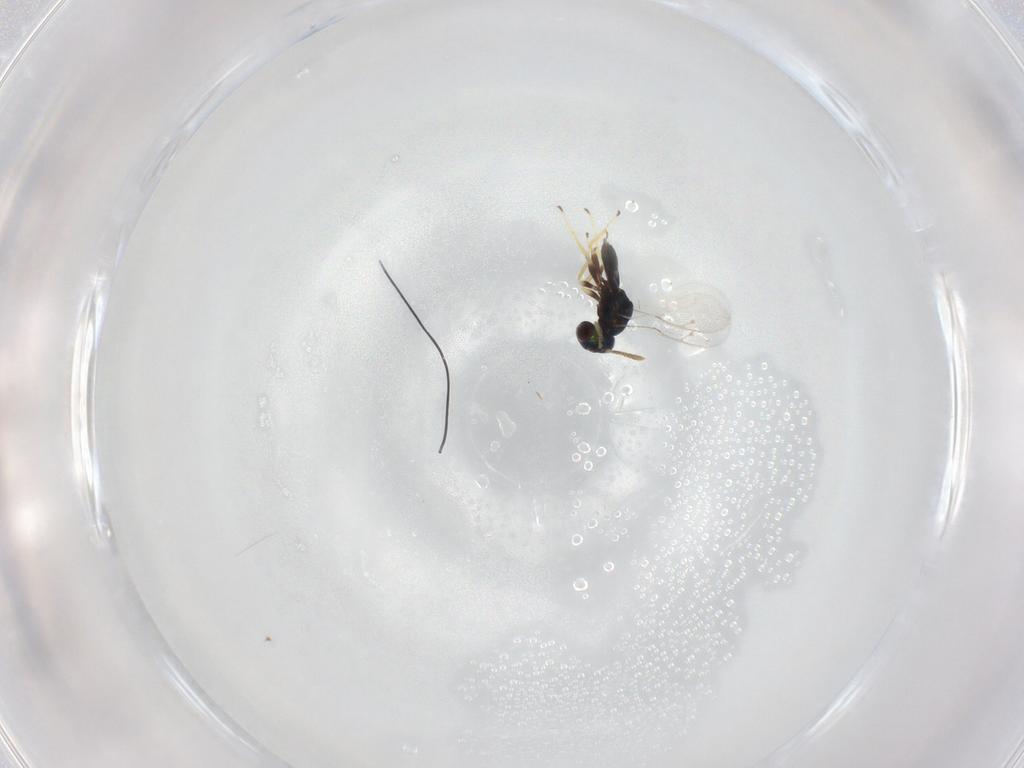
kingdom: Animalia
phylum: Arthropoda
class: Insecta
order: Hymenoptera
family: Pteromalidae
